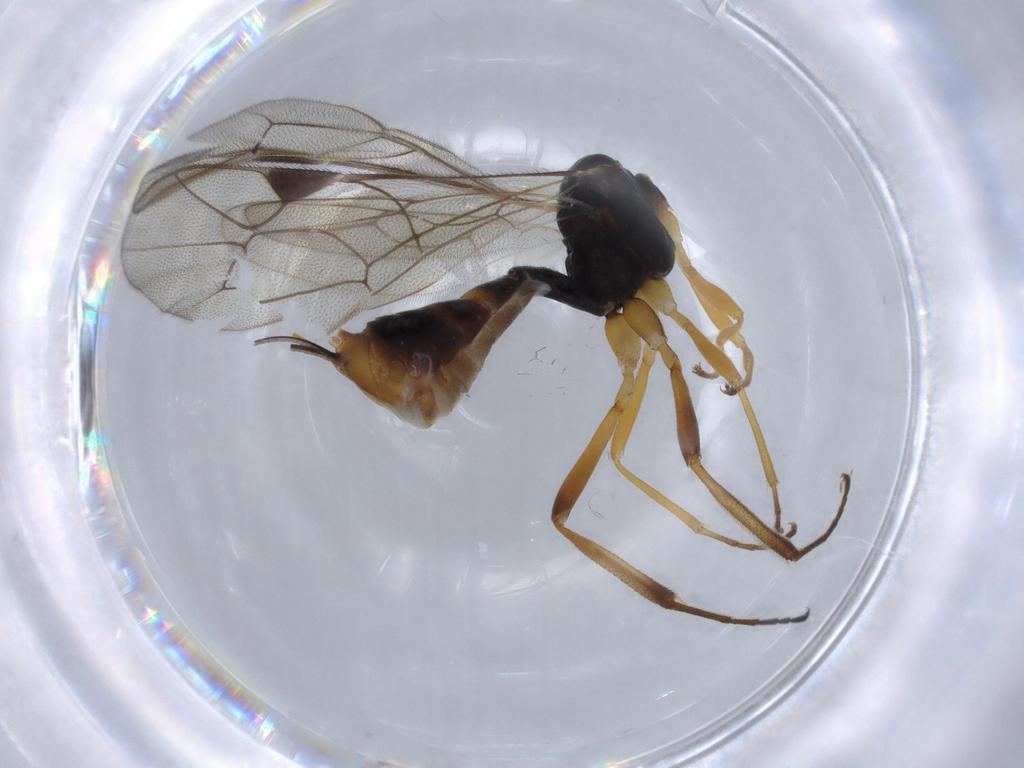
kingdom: Animalia
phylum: Arthropoda
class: Insecta
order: Hymenoptera
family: Ichneumonidae
